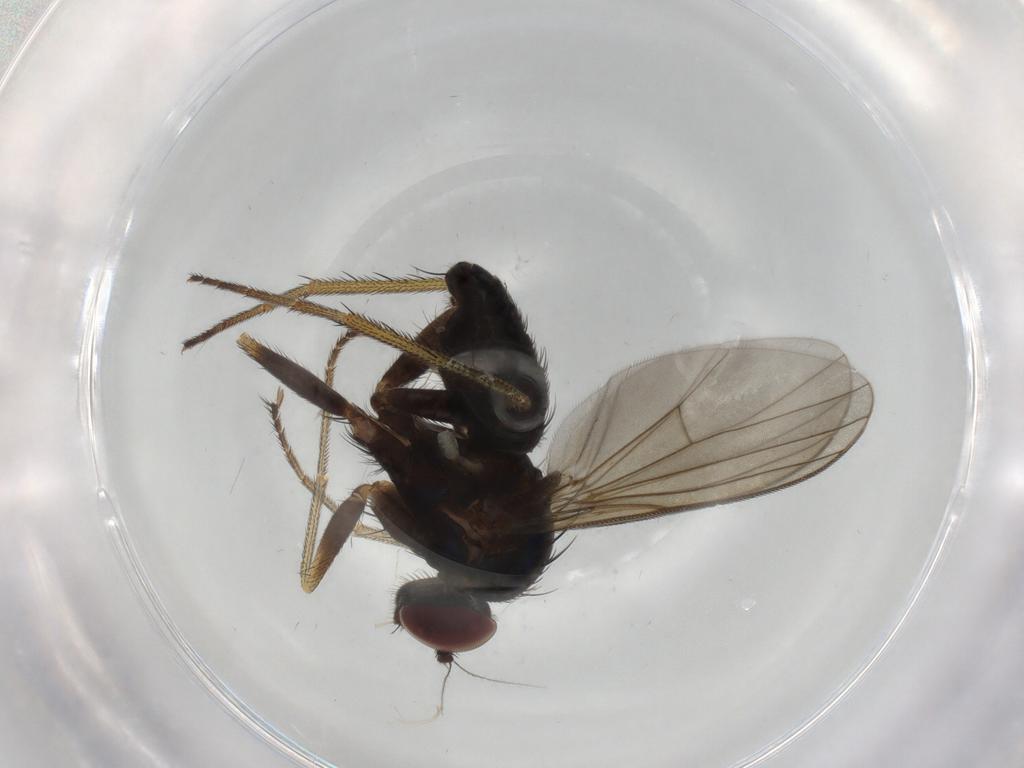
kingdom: Animalia
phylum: Arthropoda
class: Insecta
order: Diptera
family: Dolichopodidae
